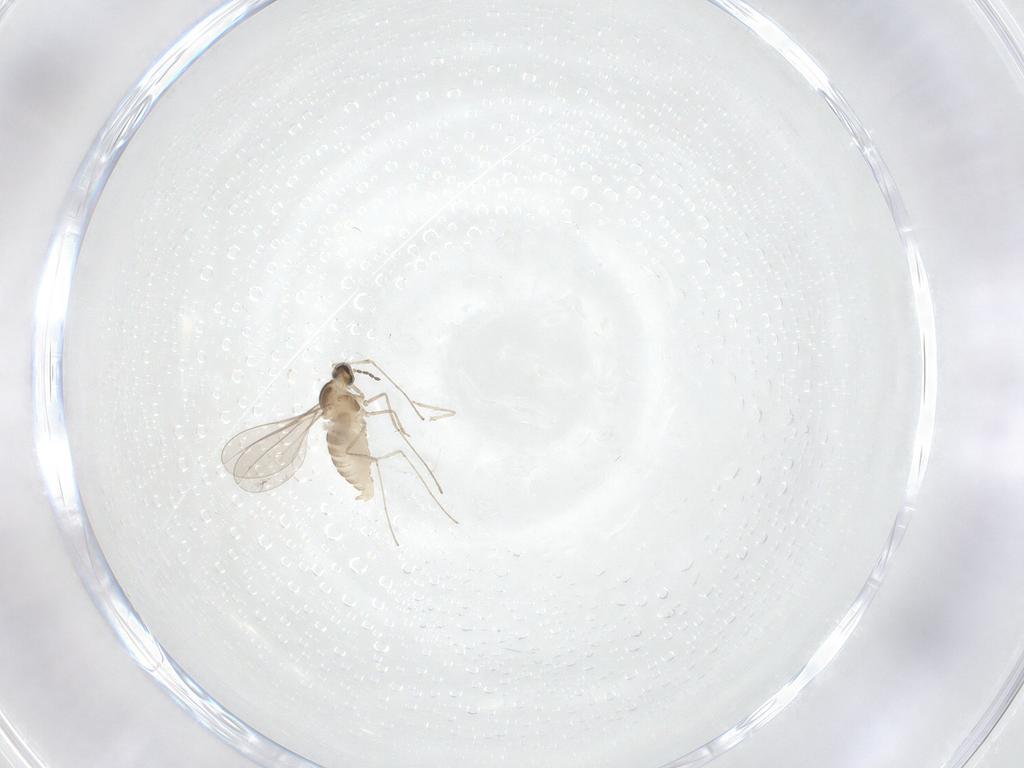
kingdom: Animalia
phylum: Arthropoda
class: Insecta
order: Diptera
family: Cecidomyiidae
